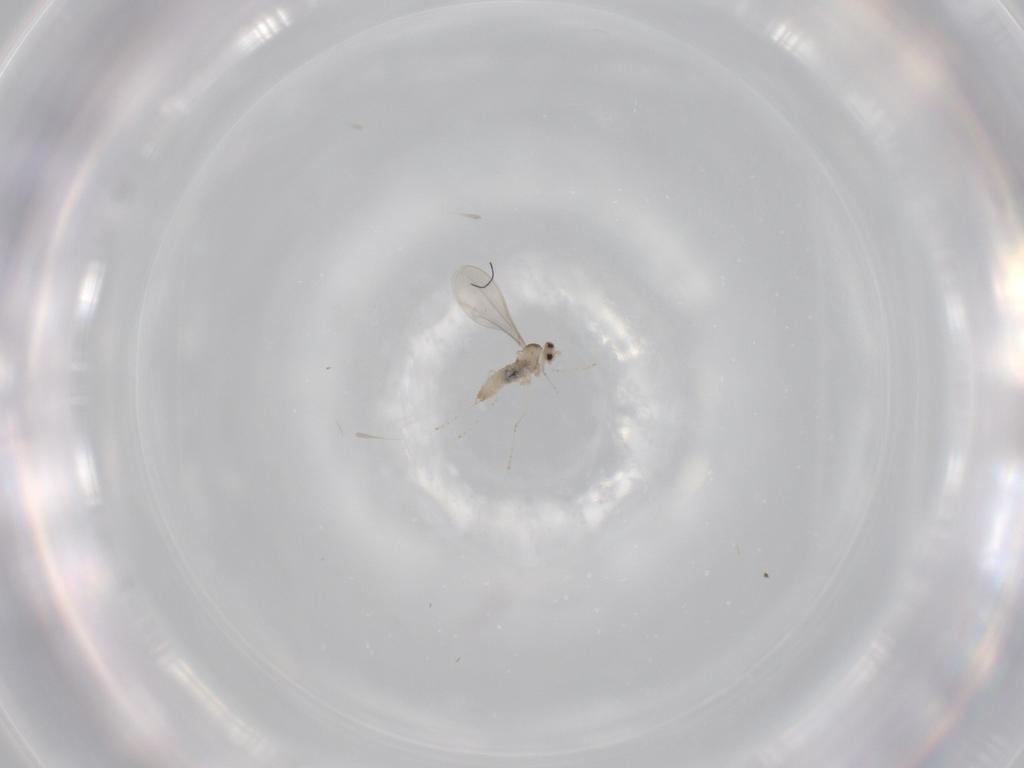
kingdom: Animalia
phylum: Arthropoda
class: Insecta
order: Diptera
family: Cecidomyiidae
